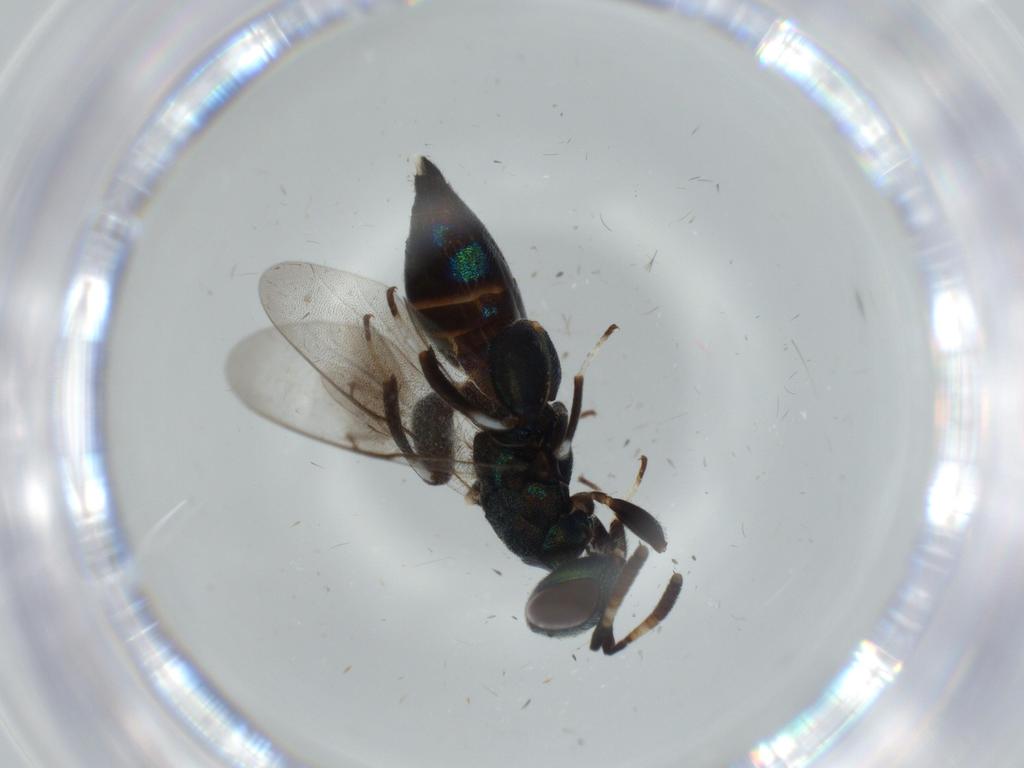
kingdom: Animalia
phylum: Arthropoda
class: Insecta
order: Hymenoptera
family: Pteromalidae
